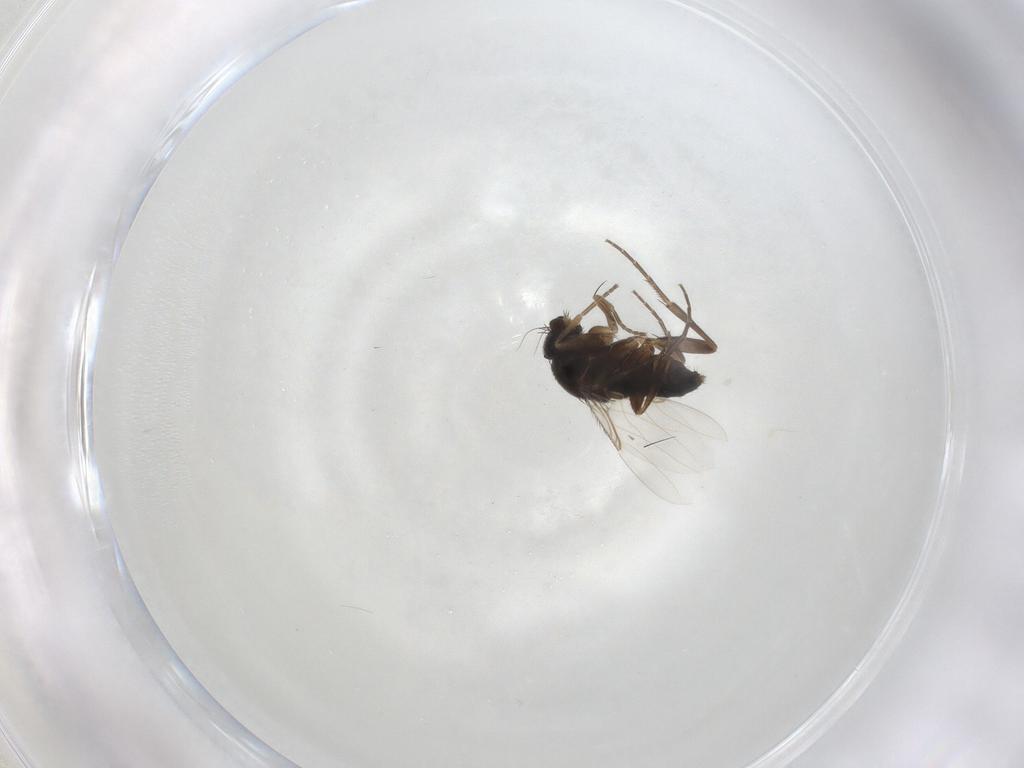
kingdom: Animalia
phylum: Arthropoda
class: Insecta
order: Diptera
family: Phoridae
